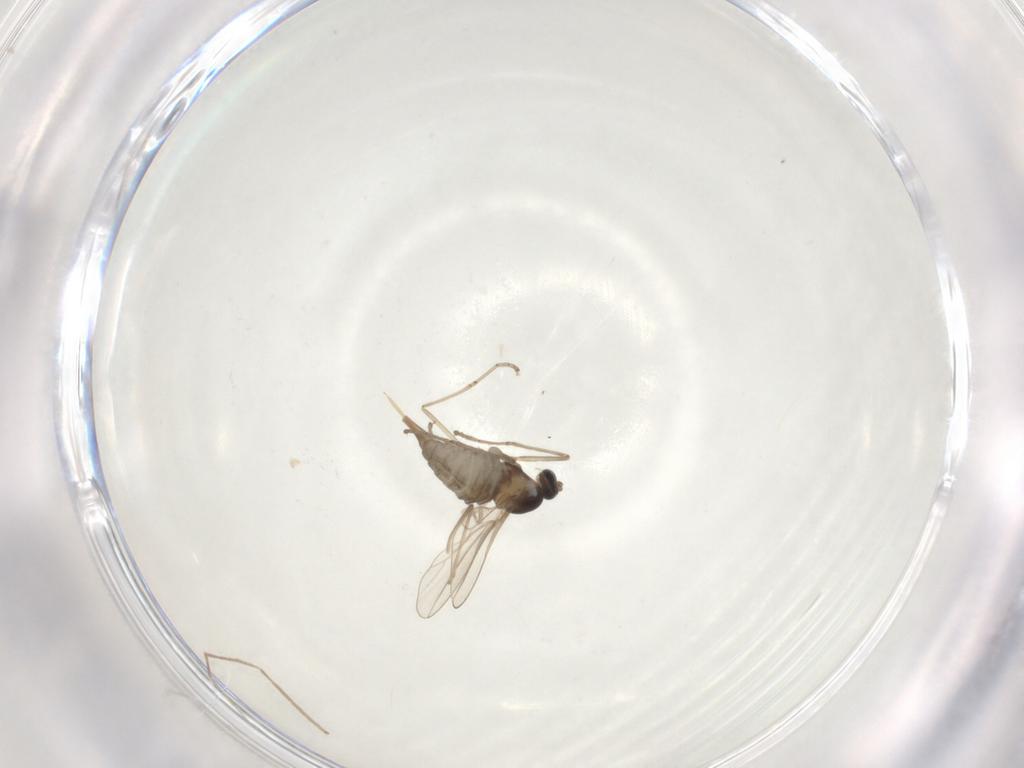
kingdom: Animalia
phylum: Arthropoda
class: Insecta
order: Diptera
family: Cecidomyiidae
